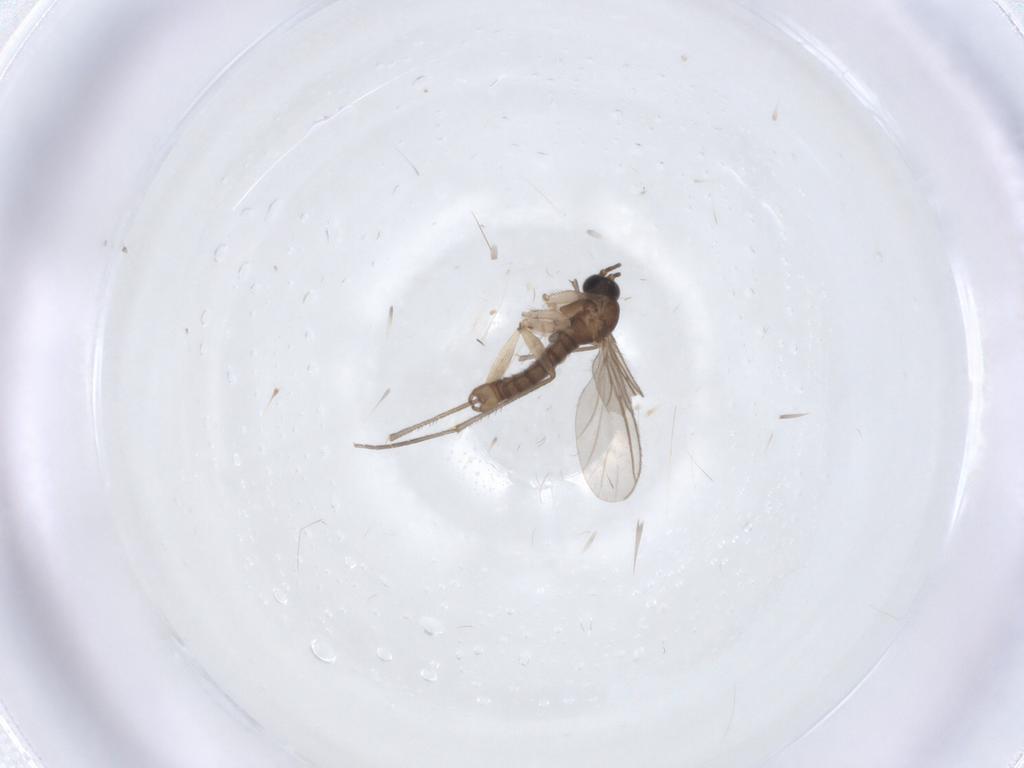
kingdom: Animalia
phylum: Arthropoda
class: Insecta
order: Diptera
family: Sciaridae
